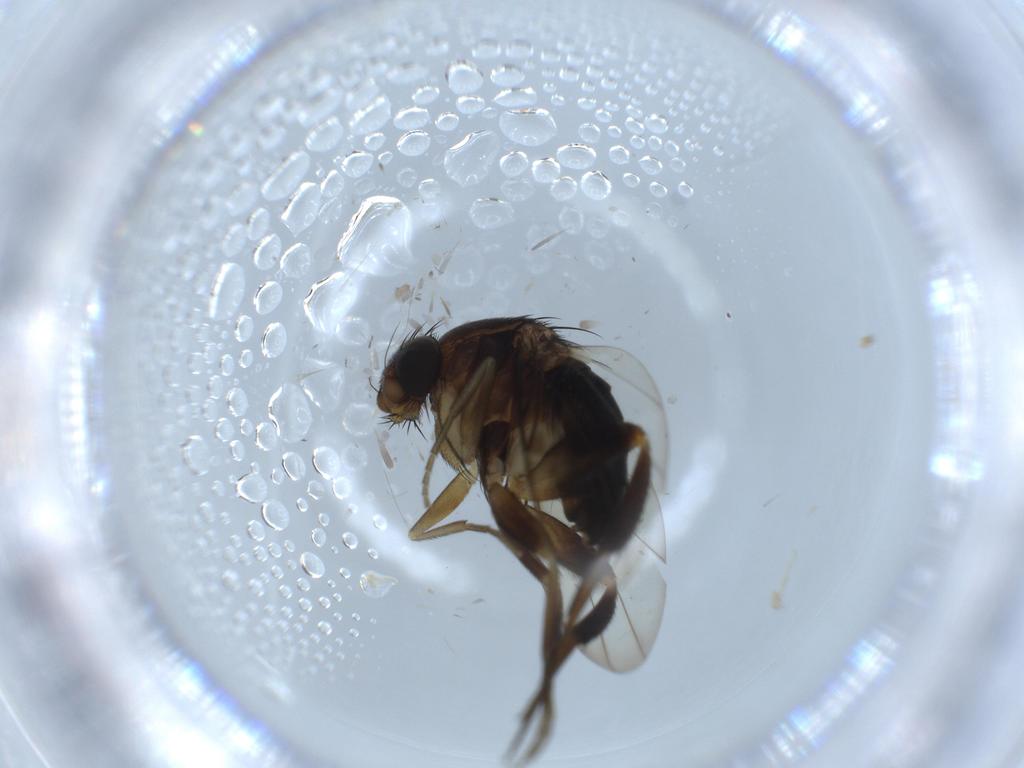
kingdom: Animalia
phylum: Arthropoda
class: Insecta
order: Diptera
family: Phoridae
